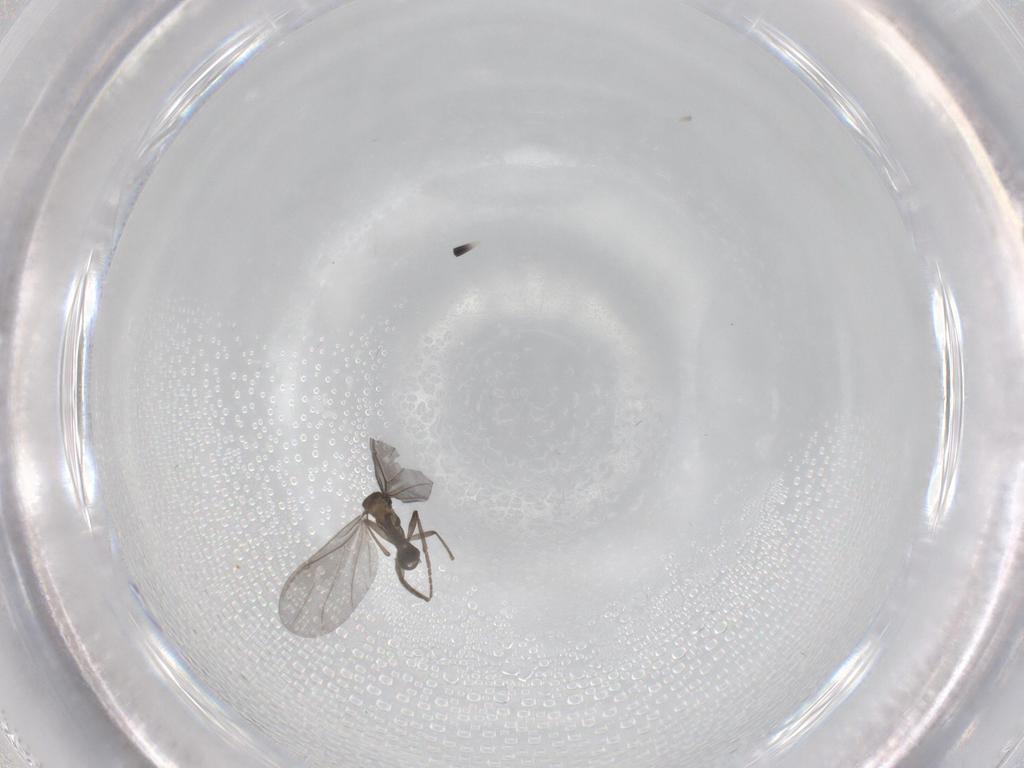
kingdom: Animalia
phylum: Arthropoda
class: Insecta
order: Diptera
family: Phoridae
